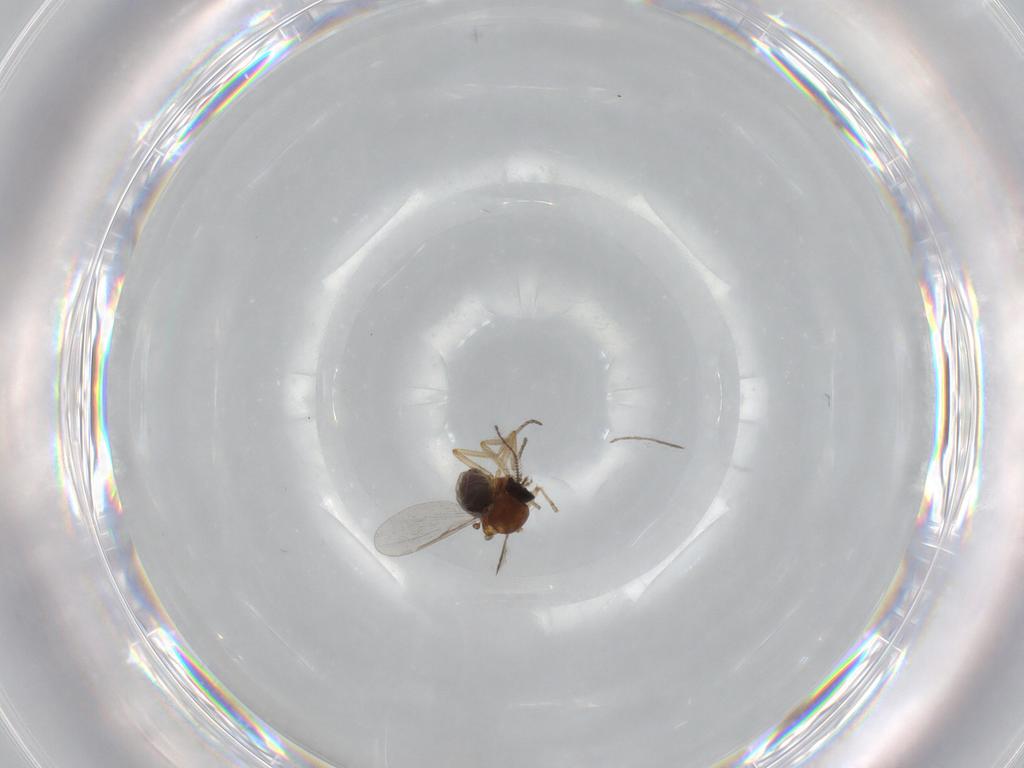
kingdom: Animalia
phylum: Arthropoda
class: Insecta
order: Diptera
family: Ceratopogonidae
